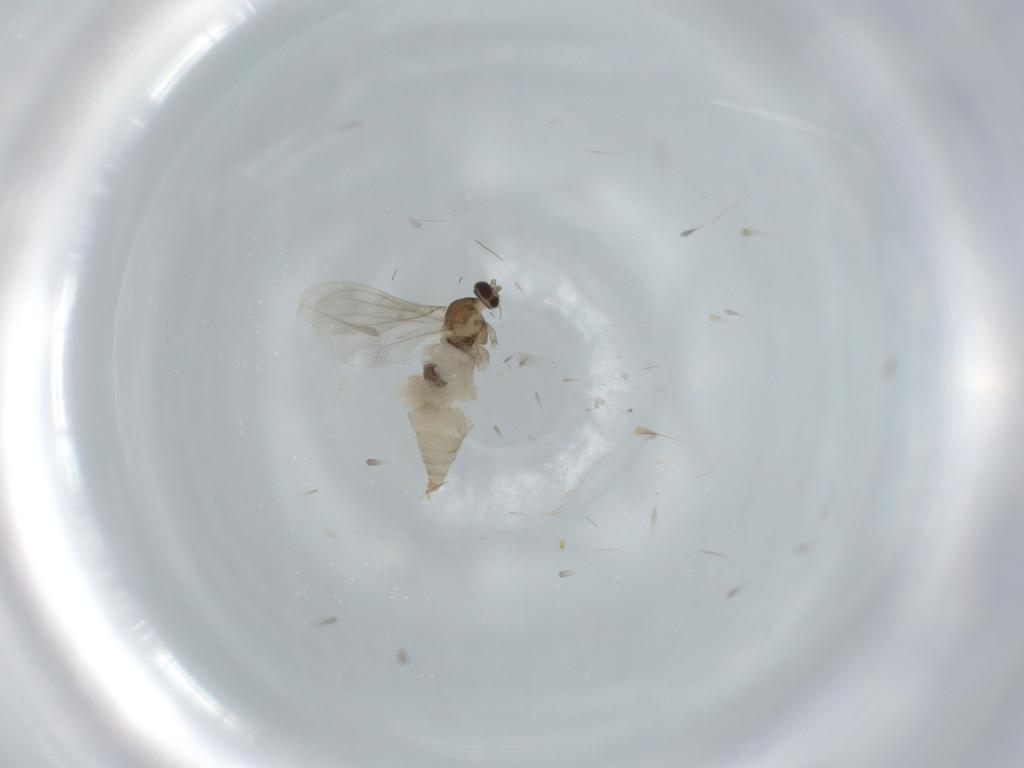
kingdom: Animalia
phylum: Arthropoda
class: Insecta
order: Diptera
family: Cecidomyiidae
